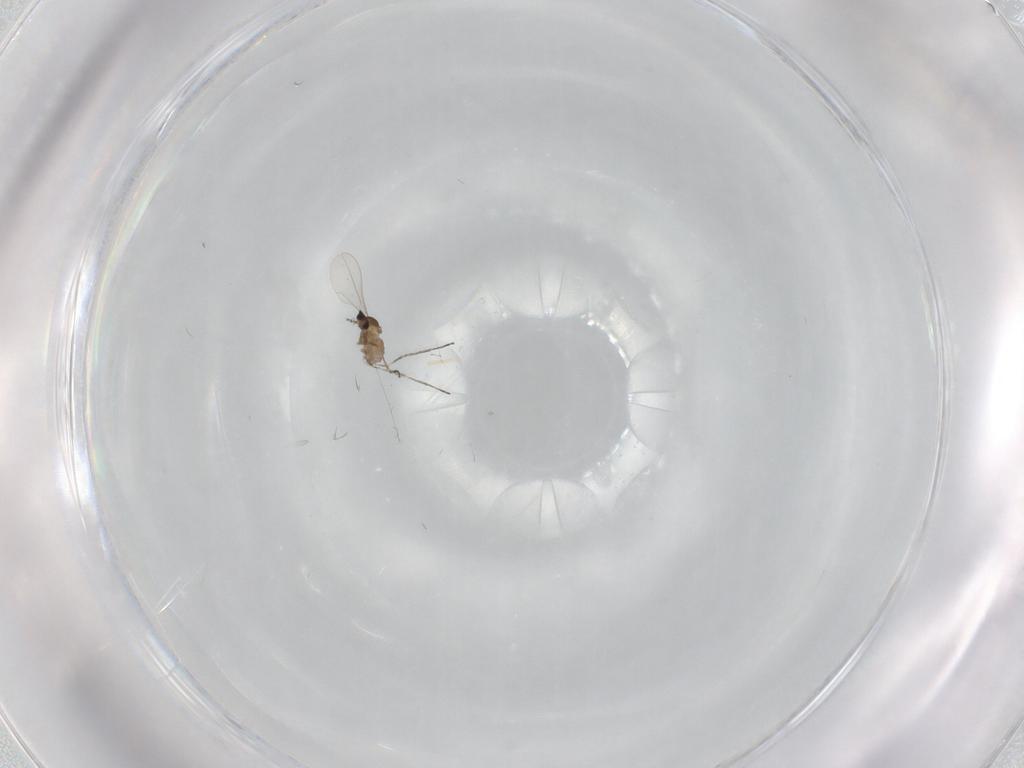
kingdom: Animalia
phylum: Arthropoda
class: Insecta
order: Diptera
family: Cecidomyiidae
